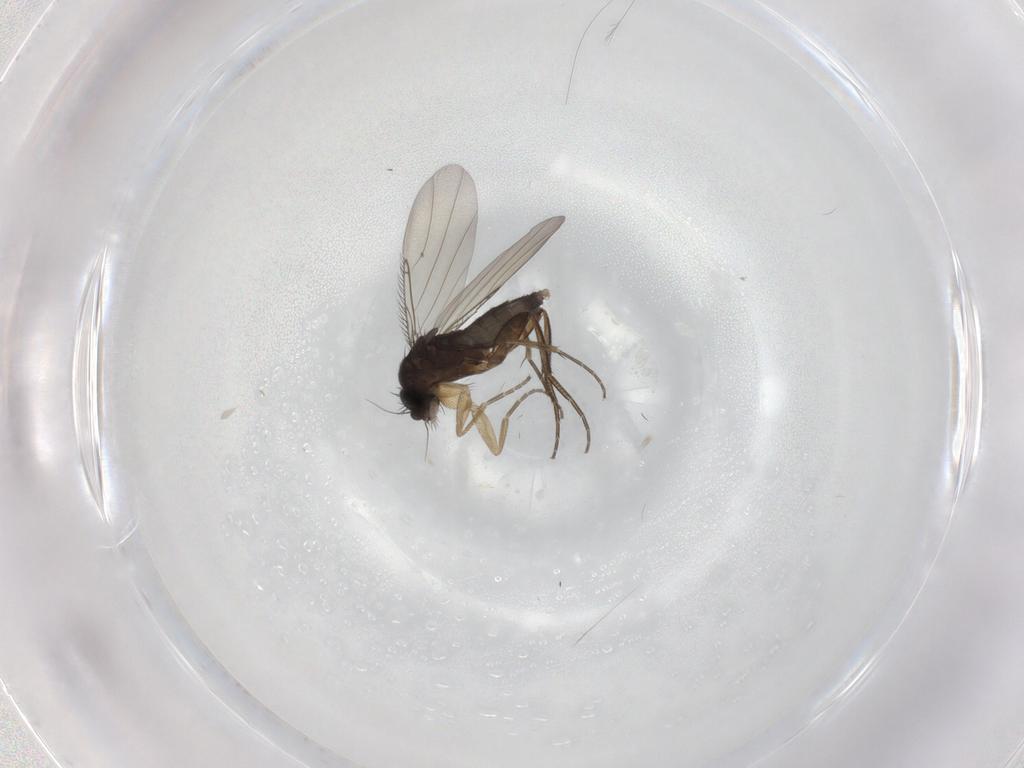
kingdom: Animalia
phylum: Arthropoda
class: Insecta
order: Diptera
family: Phoridae
